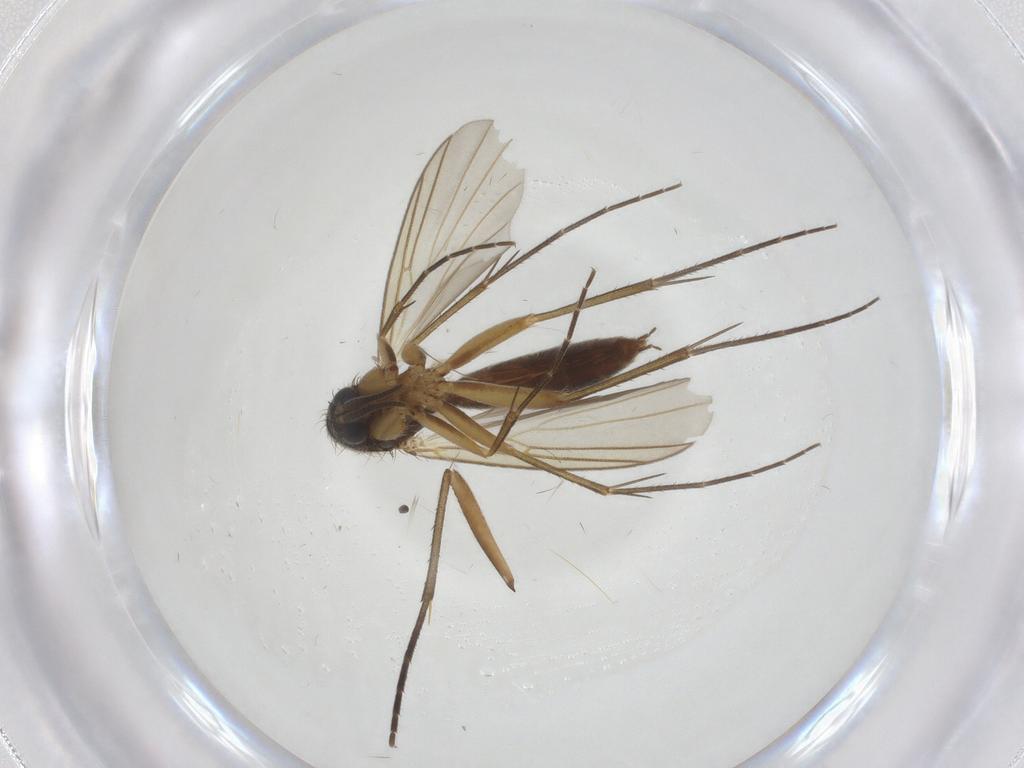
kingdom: Animalia
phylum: Arthropoda
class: Insecta
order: Diptera
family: Mycetophilidae
